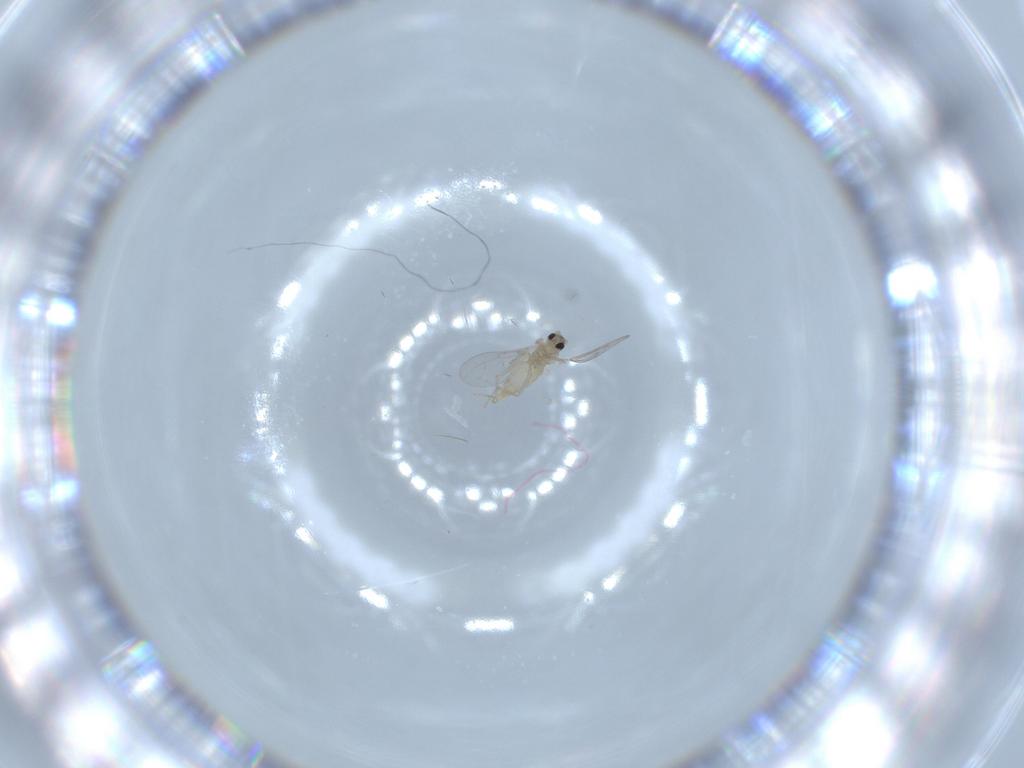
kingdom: Animalia
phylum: Arthropoda
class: Insecta
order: Diptera
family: Cecidomyiidae
